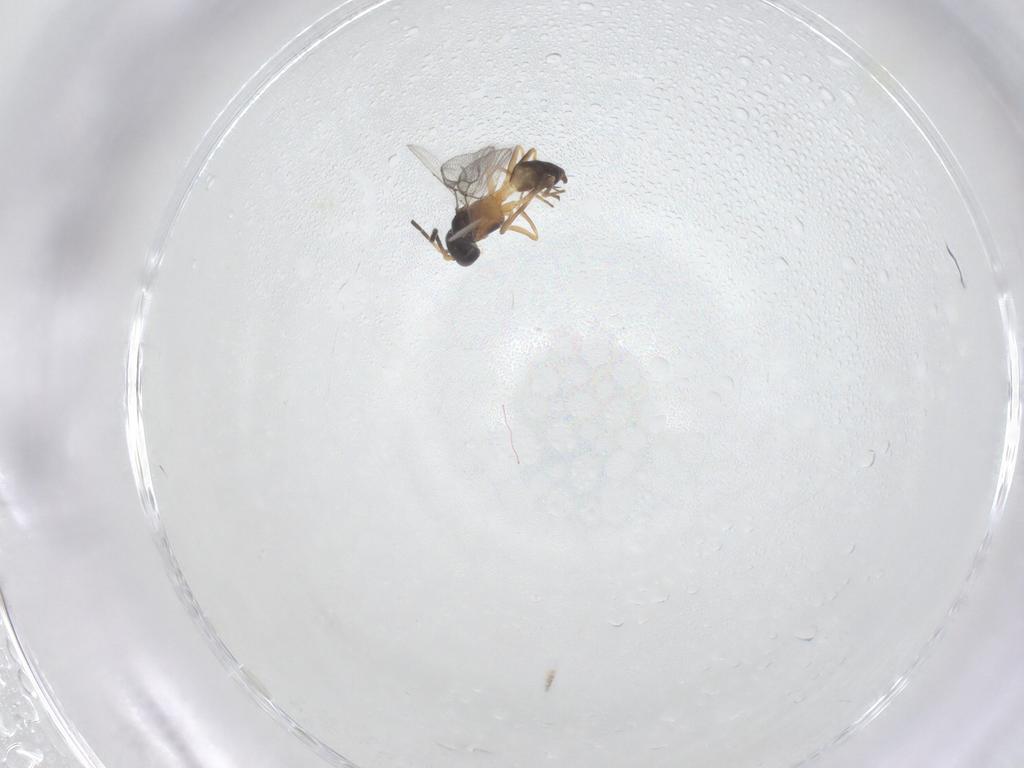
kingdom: Animalia
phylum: Arthropoda
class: Insecta
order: Hymenoptera
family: Braconidae
